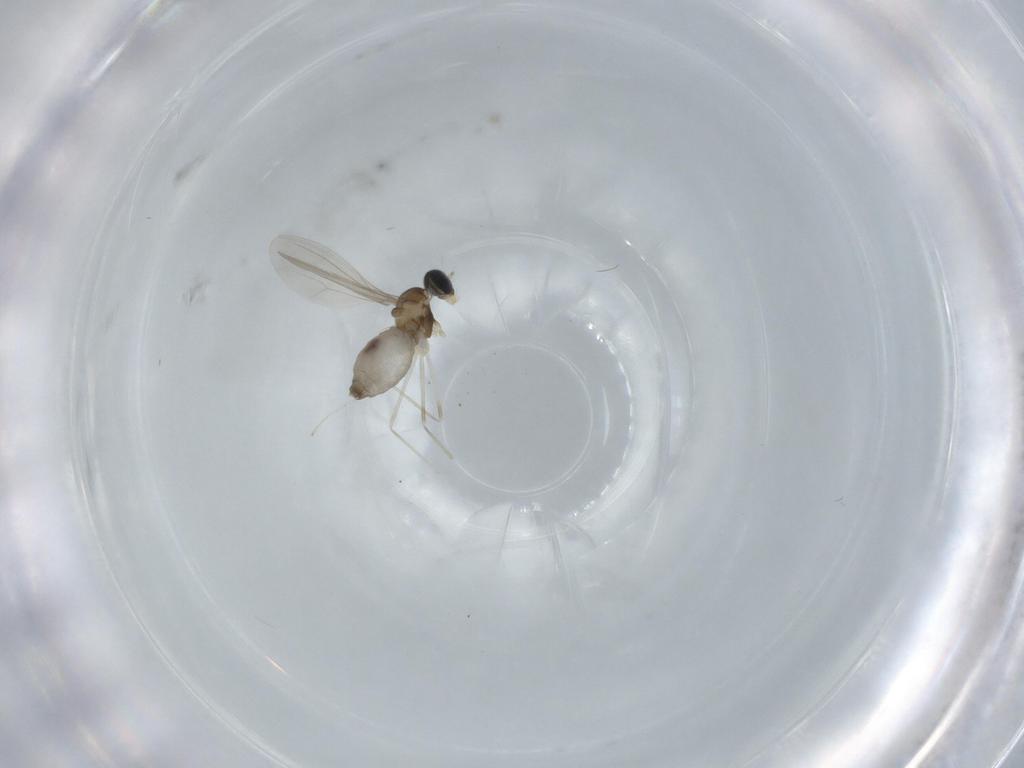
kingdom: Animalia
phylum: Arthropoda
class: Insecta
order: Diptera
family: Cecidomyiidae
